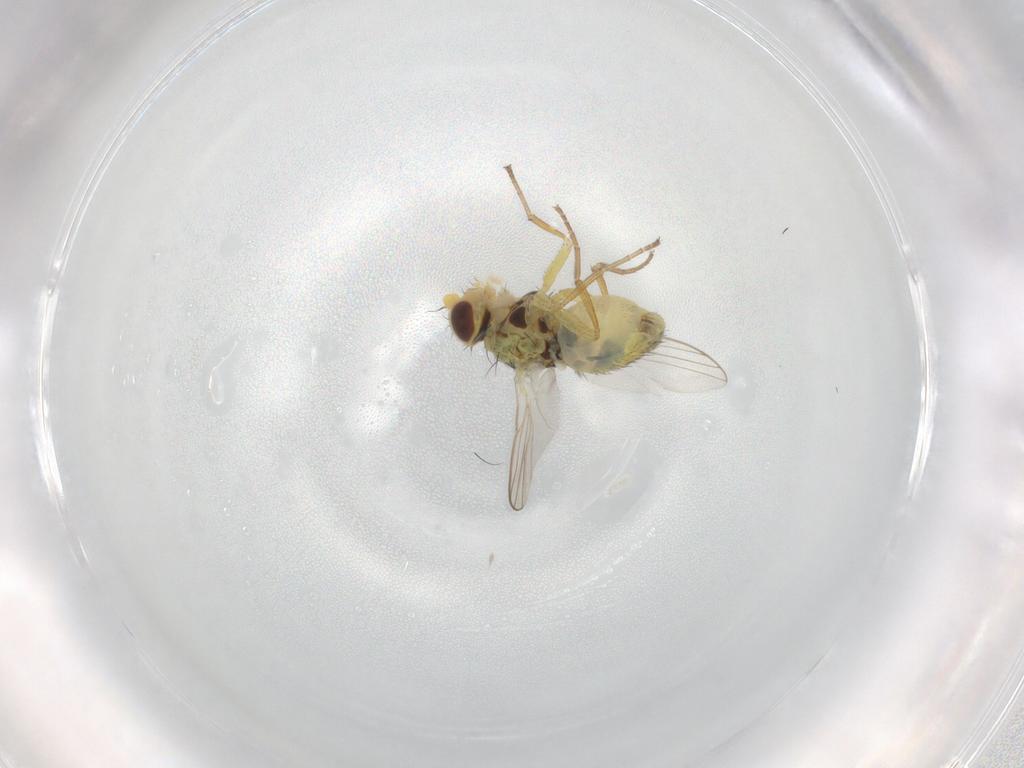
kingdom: Animalia
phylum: Arthropoda
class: Insecta
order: Diptera
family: Agromyzidae
